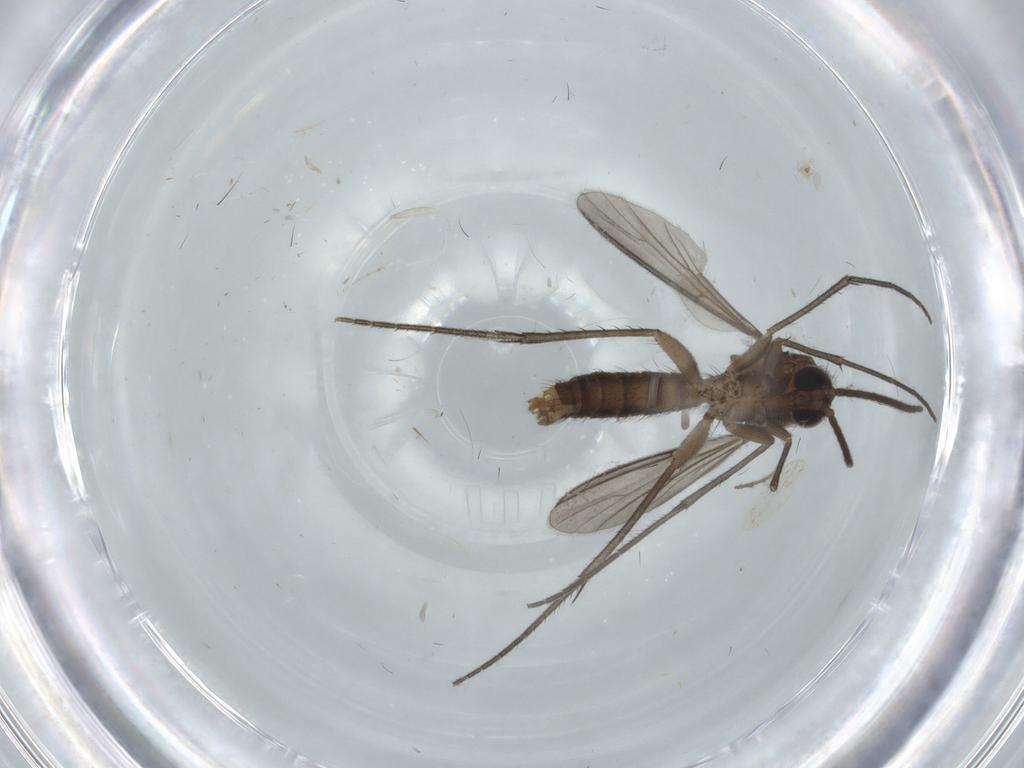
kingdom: Animalia
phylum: Arthropoda
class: Insecta
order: Diptera
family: Mycetophilidae
